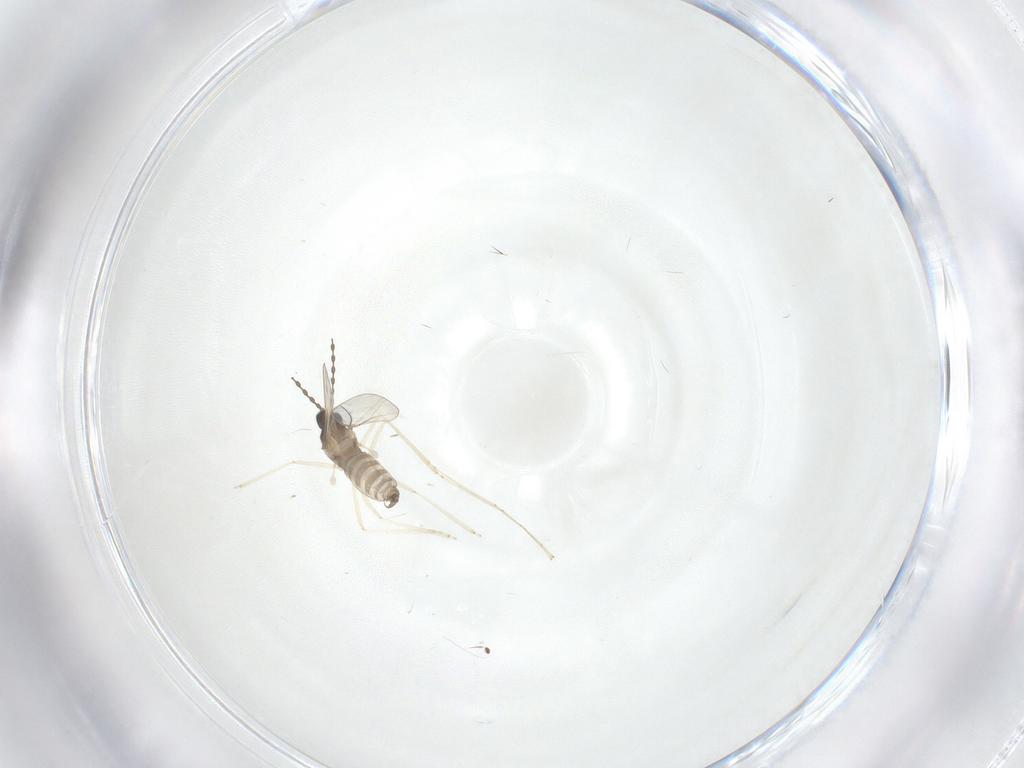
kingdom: Animalia
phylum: Arthropoda
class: Insecta
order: Diptera
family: Psychodidae
